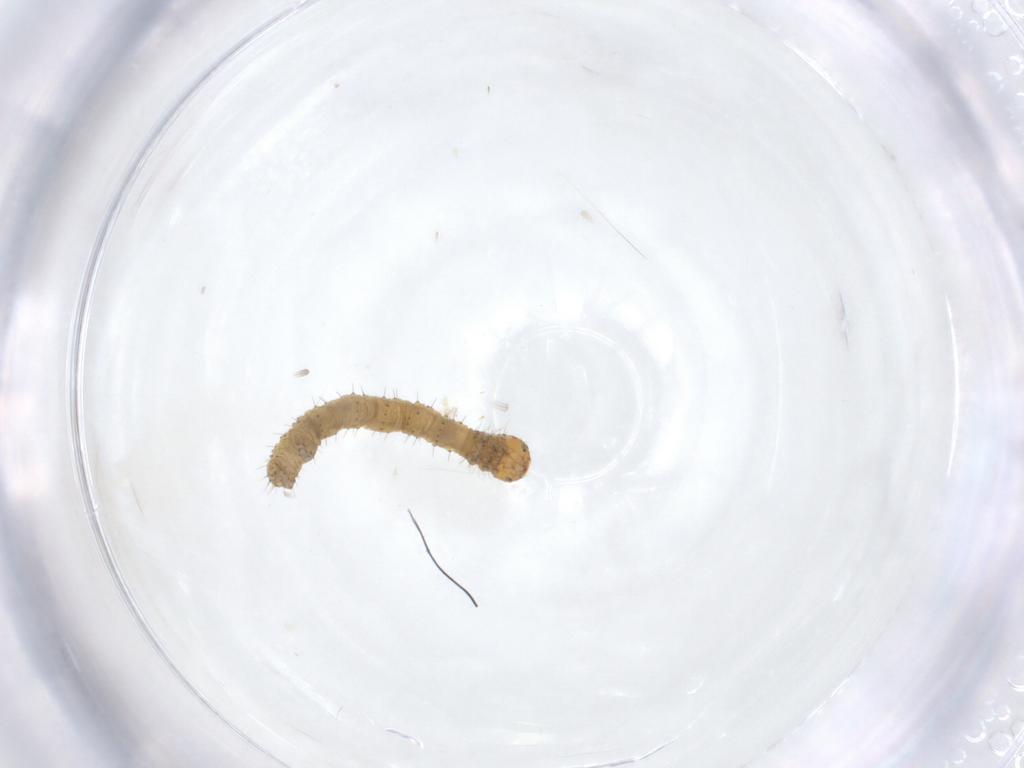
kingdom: Animalia
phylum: Arthropoda
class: Insecta
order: Lepidoptera
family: Geometridae
